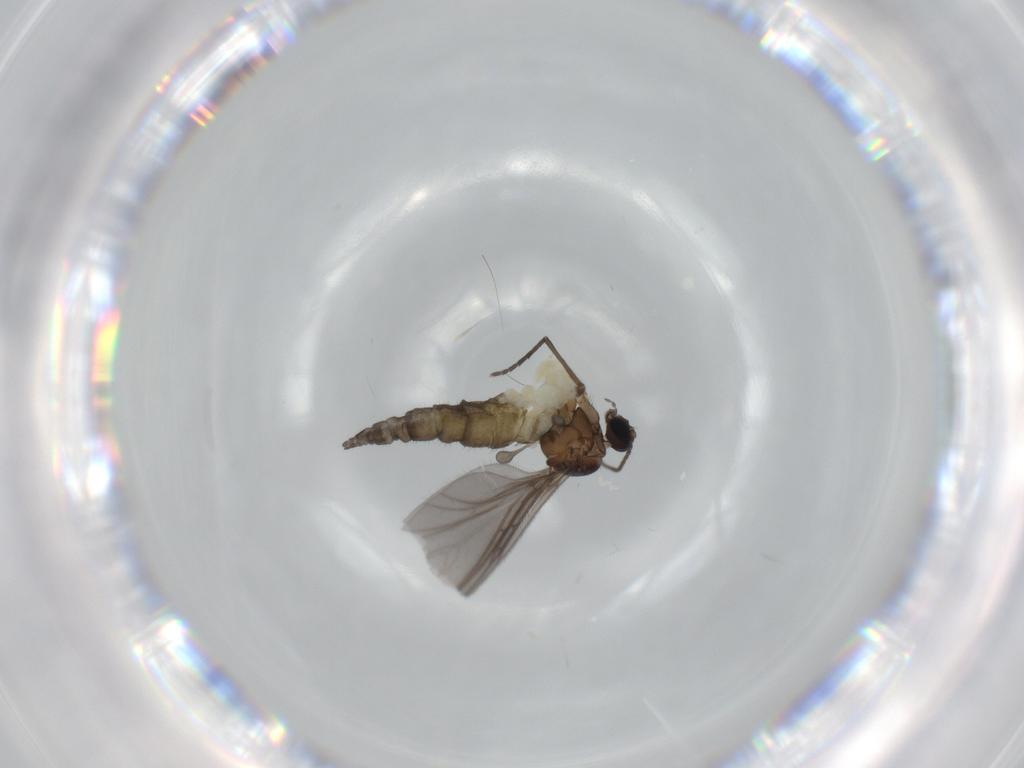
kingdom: Animalia
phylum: Arthropoda
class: Insecta
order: Diptera
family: Sciaridae
